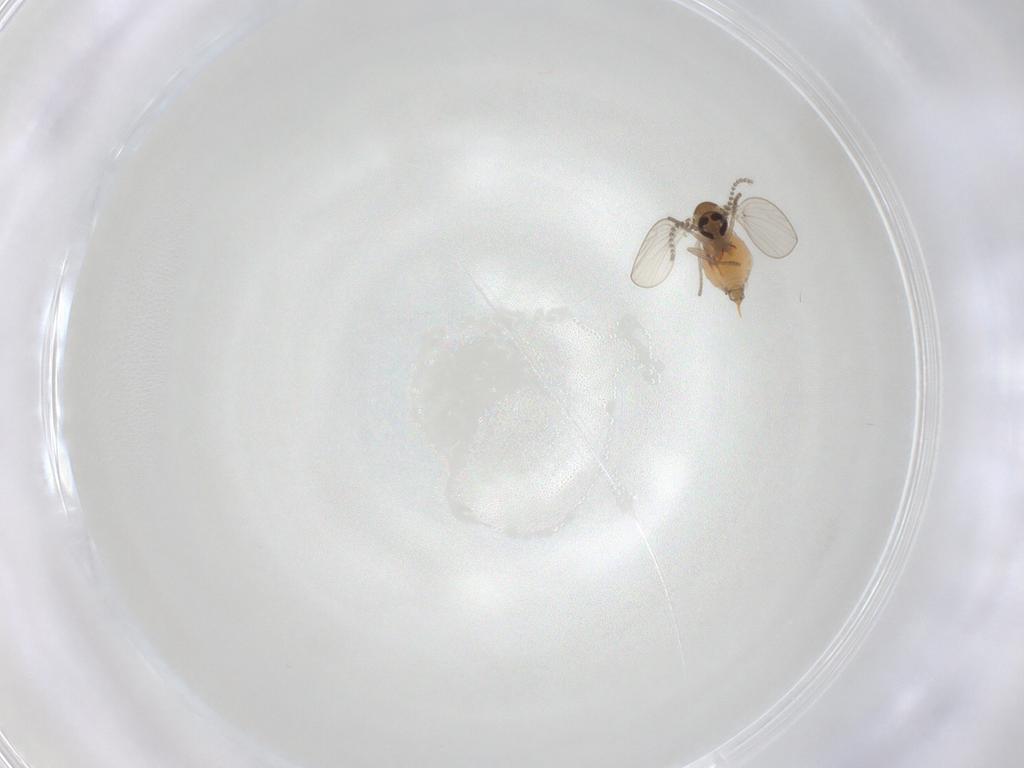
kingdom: Animalia
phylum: Arthropoda
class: Insecta
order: Diptera
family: Psychodidae
